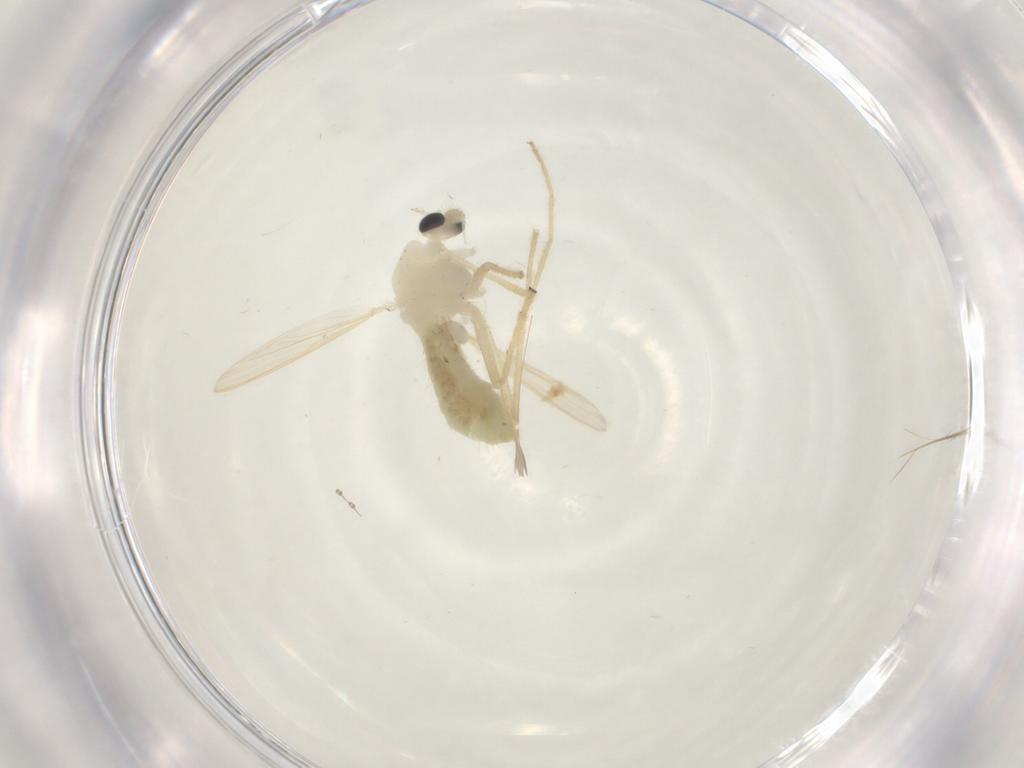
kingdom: Animalia
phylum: Arthropoda
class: Insecta
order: Diptera
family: Chironomidae
